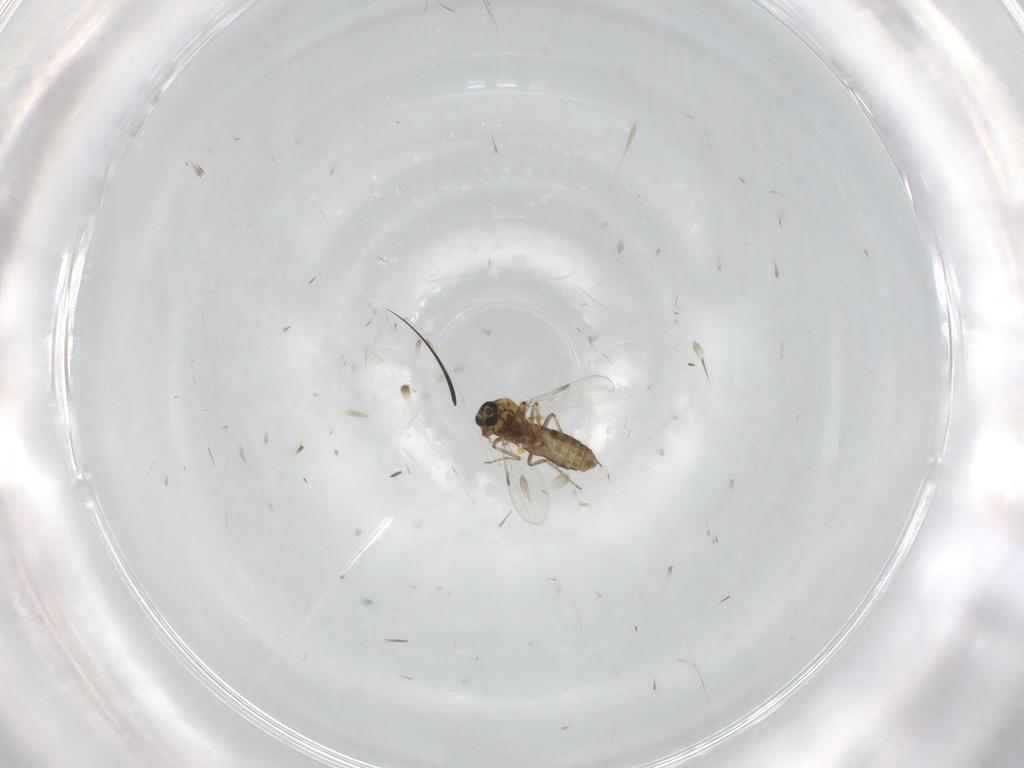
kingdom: Animalia
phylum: Arthropoda
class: Insecta
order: Diptera
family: Ceratopogonidae
